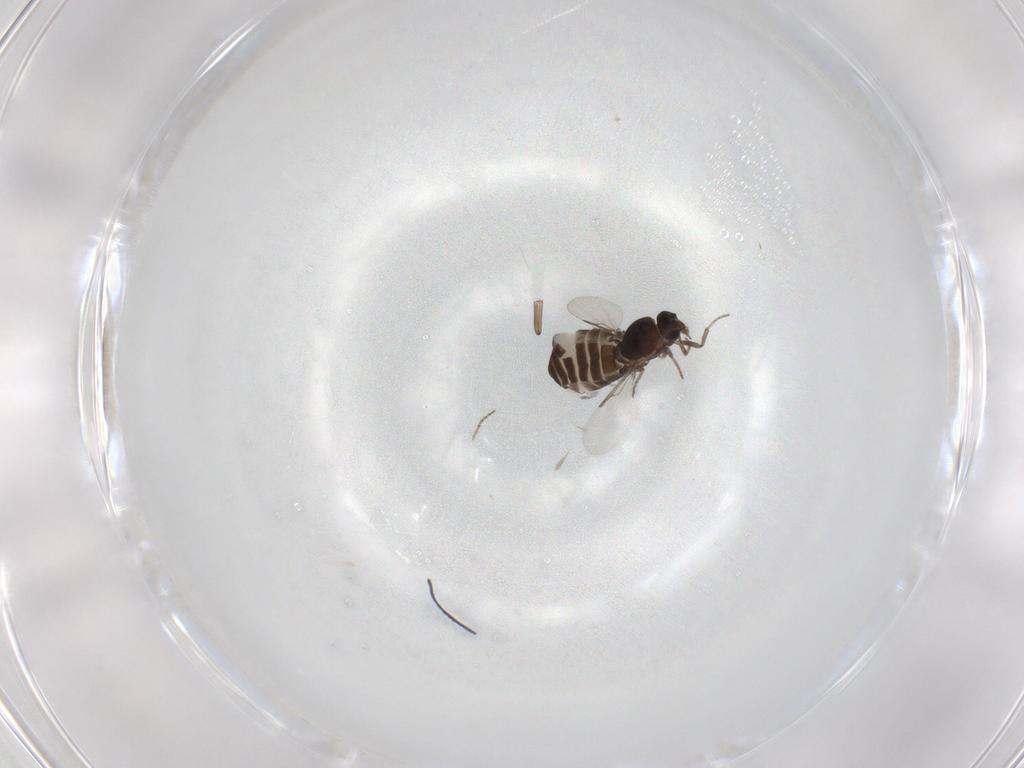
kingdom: Animalia
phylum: Arthropoda
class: Insecta
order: Diptera
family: Ceratopogonidae
